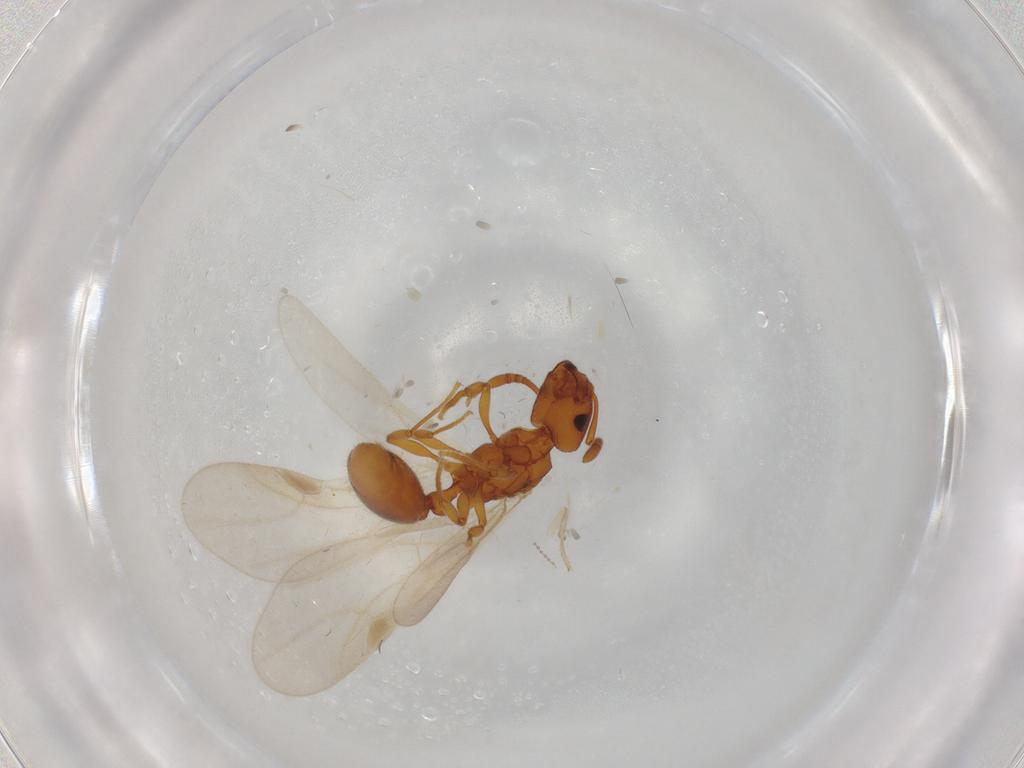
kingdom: Animalia
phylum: Arthropoda
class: Insecta
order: Hymenoptera
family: Formicidae
